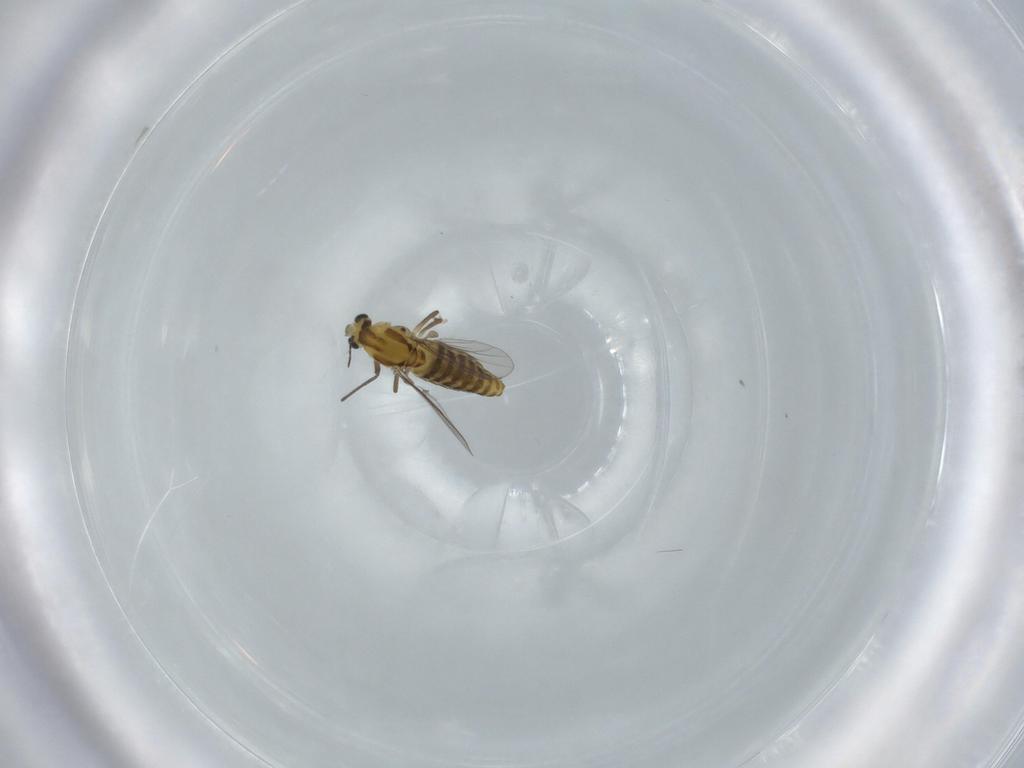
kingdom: Animalia
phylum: Arthropoda
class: Insecta
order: Diptera
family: Chironomidae
